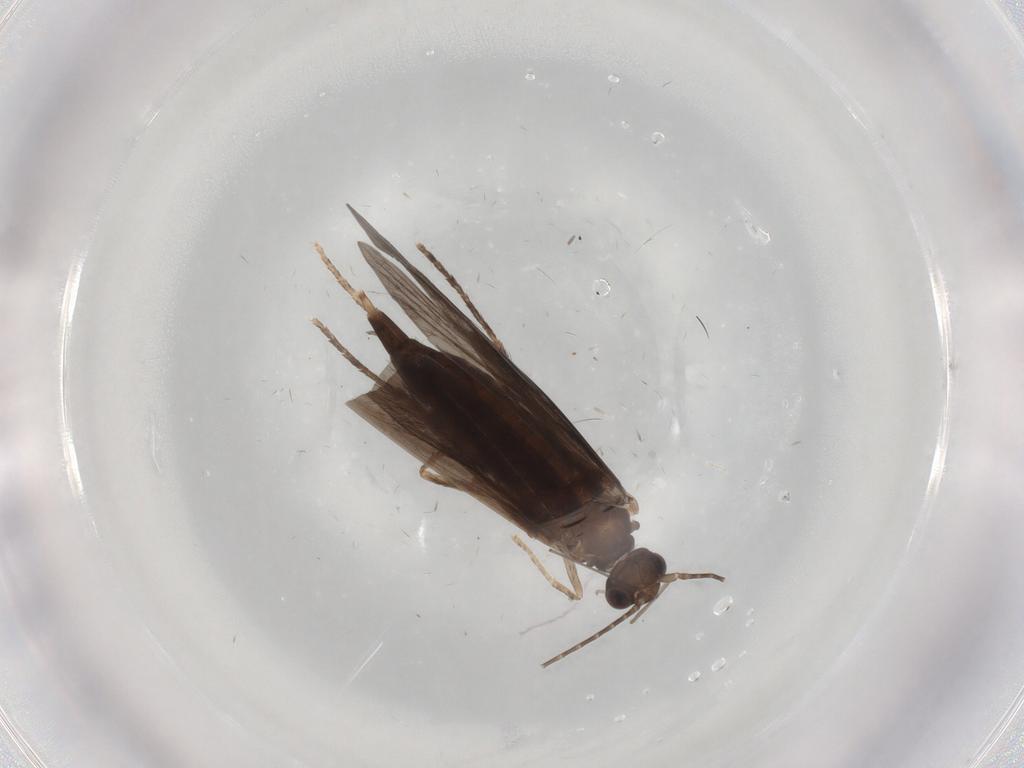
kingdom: Animalia
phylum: Arthropoda
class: Insecta
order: Trichoptera
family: Xiphocentronidae
